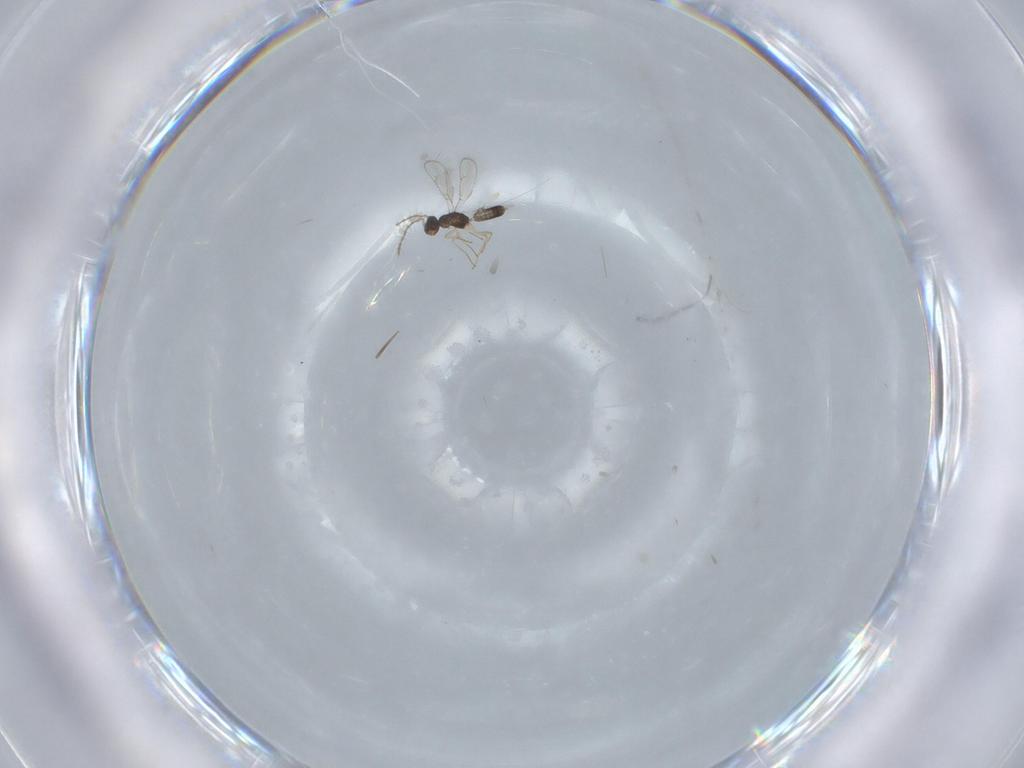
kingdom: Animalia
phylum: Arthropoda
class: Insecta
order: Hymenoptera
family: Pteromalidae
